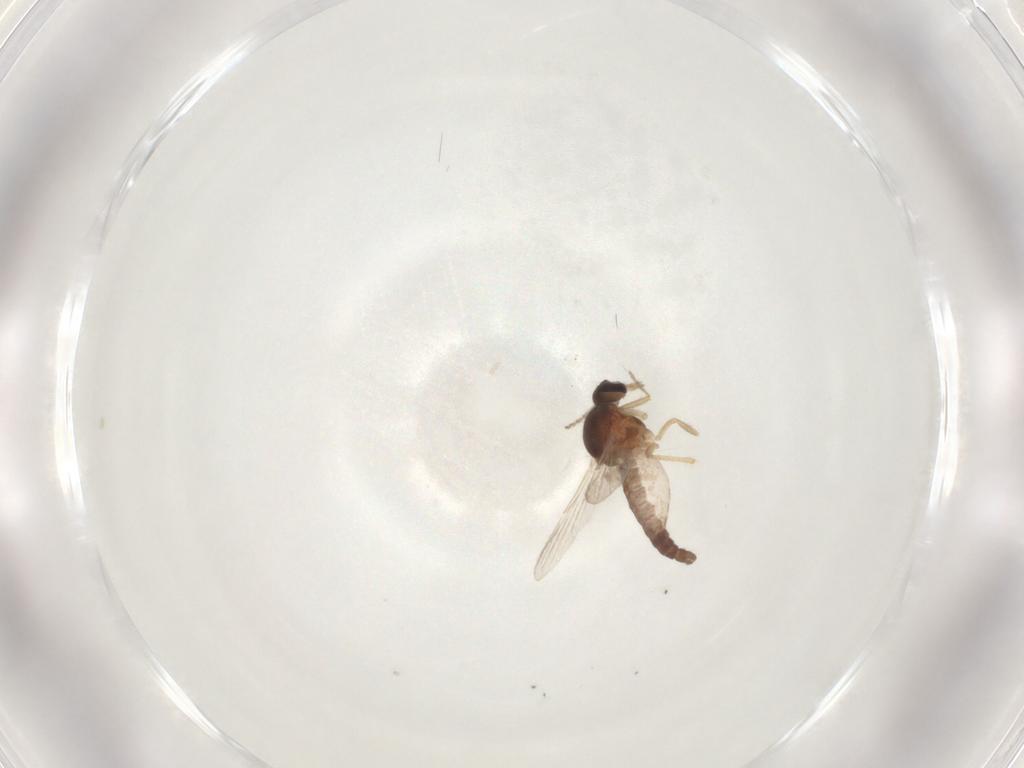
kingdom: Animalia
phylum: Arthropoda
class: Insecta
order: Diptera
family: Ceratopogonidae
